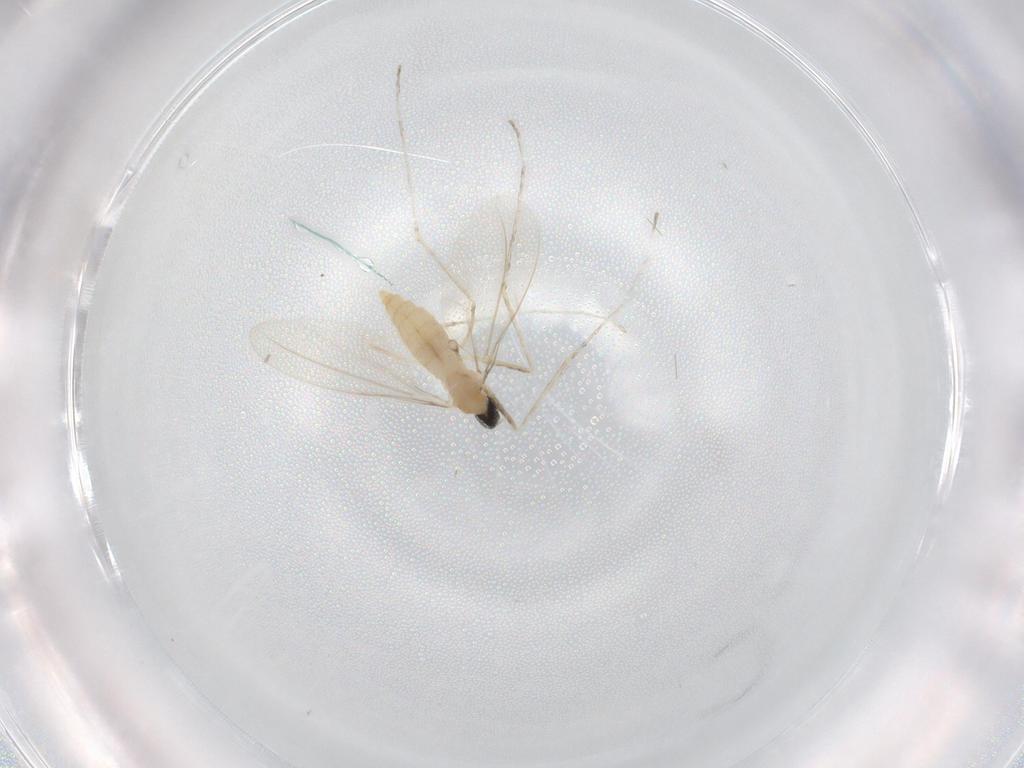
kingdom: Animalia
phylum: Arthropoda
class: Insecta
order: Diptera
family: Cecidomyiidae
